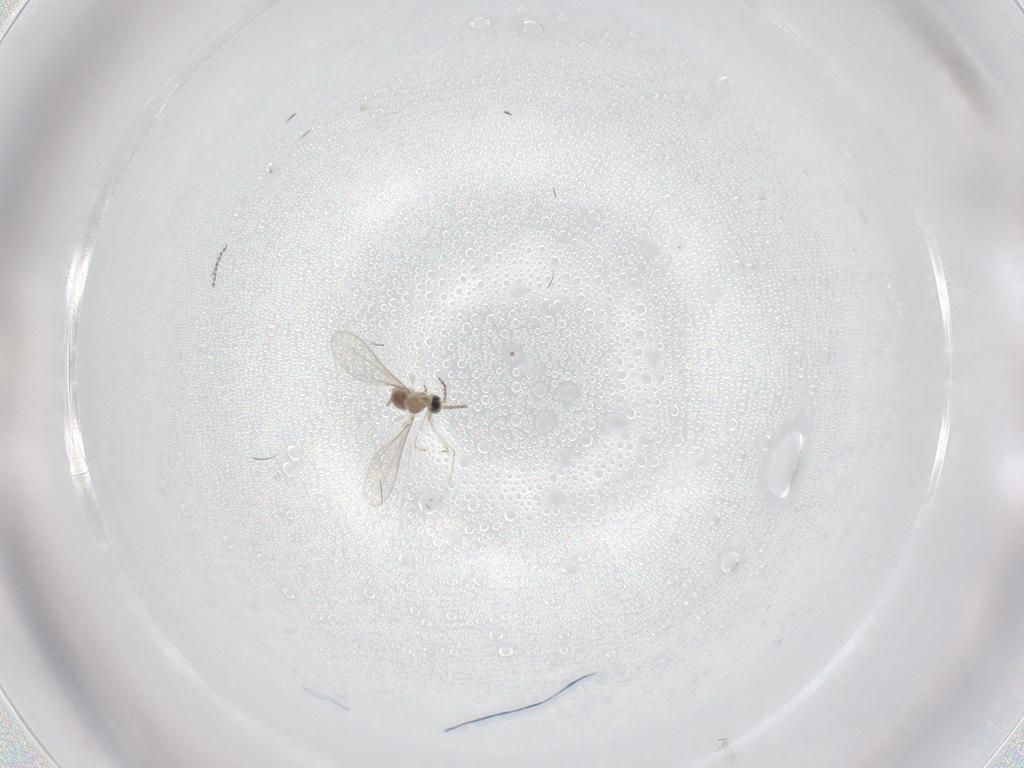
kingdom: Animalia
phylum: Arthropoda
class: Insecta
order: Diptera
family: Cecidomyiidae
